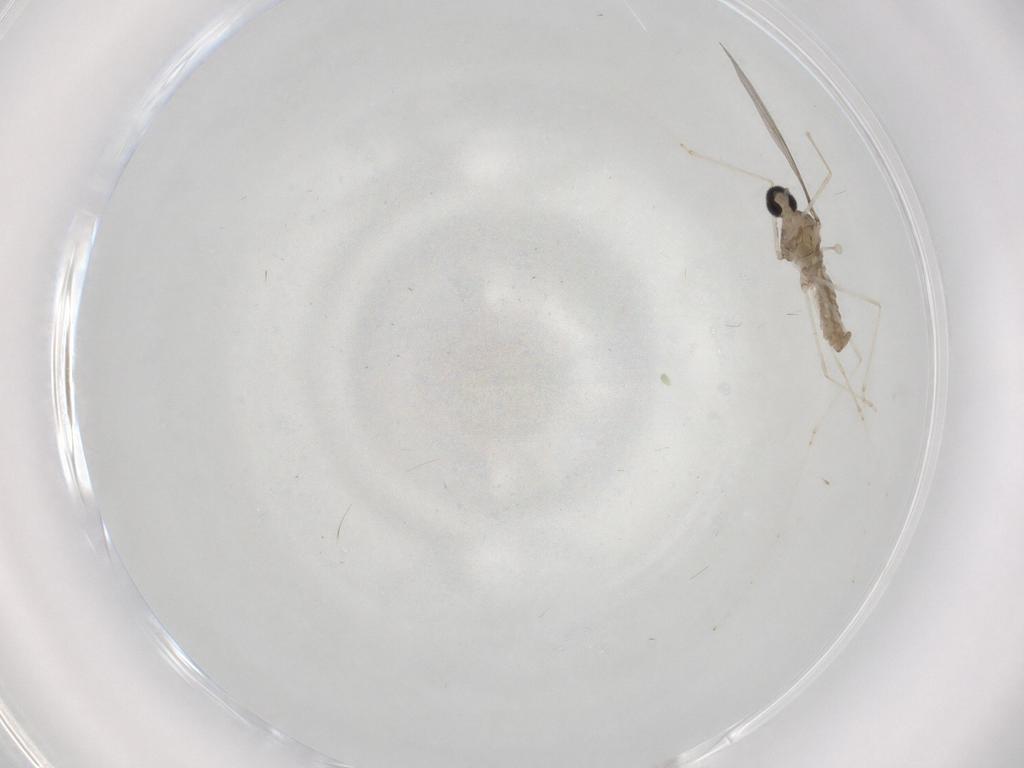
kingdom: Animalia
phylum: Arthropoda
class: Insecta
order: Diptera
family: Cecidomyiidae
